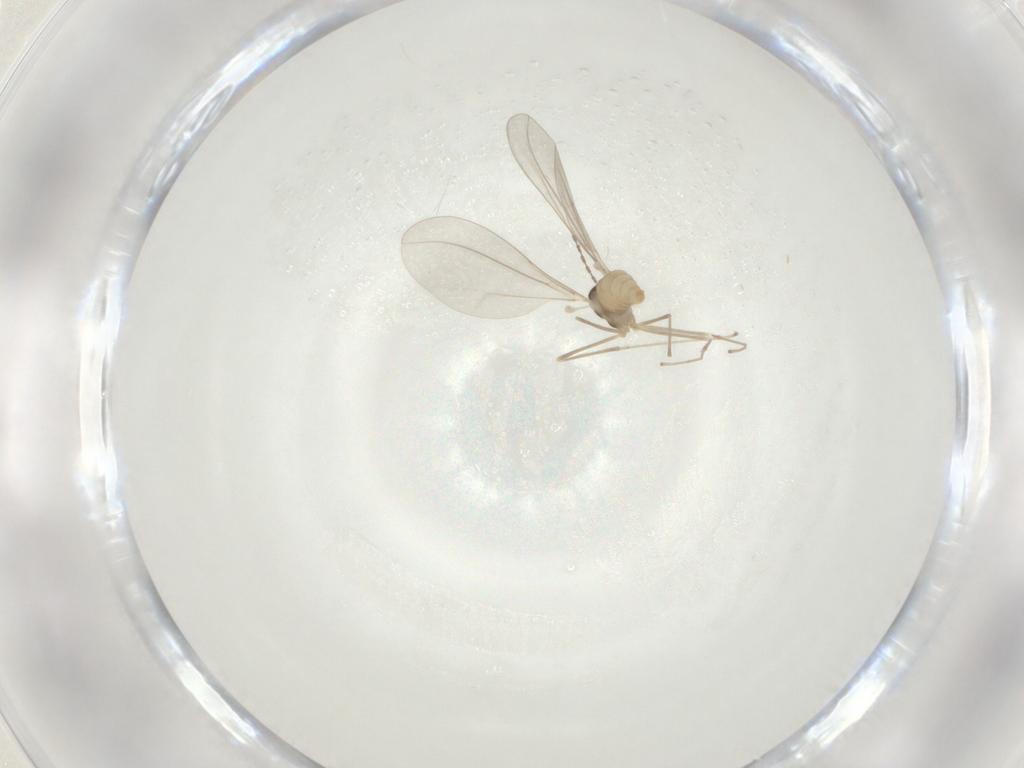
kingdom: Animalia
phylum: Arthropoda
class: Insecta
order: Diptera
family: Cecidomyiidae
